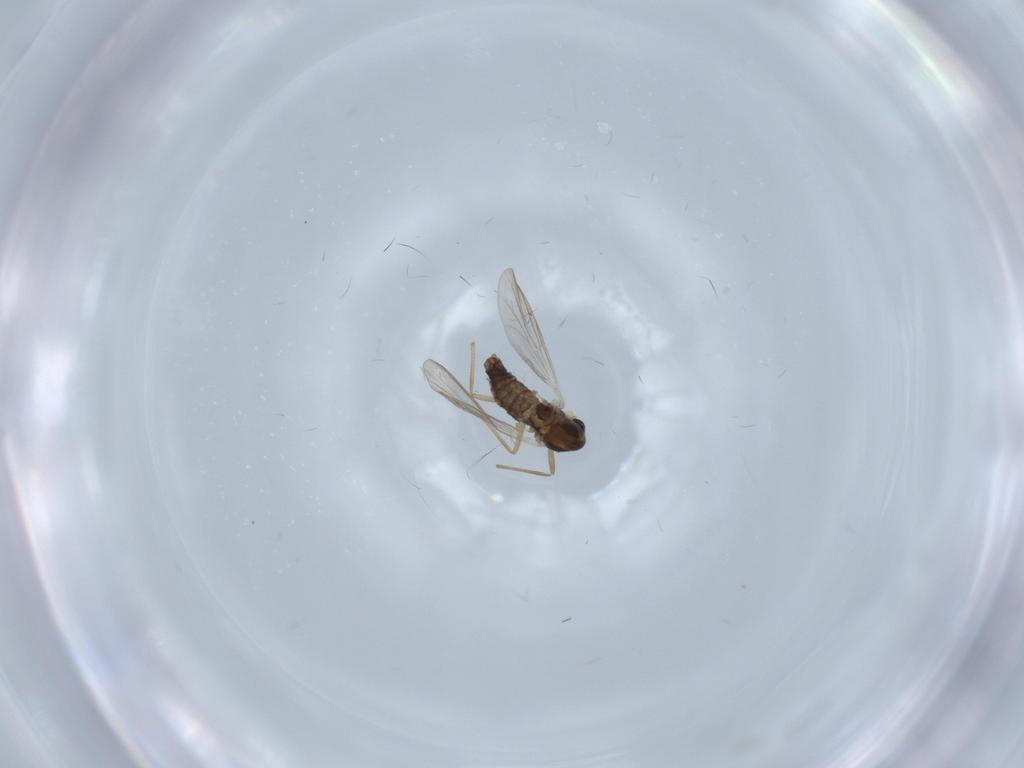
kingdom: Animalia
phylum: Arthropoda
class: Insecta
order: Diptera
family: Chironomidae
